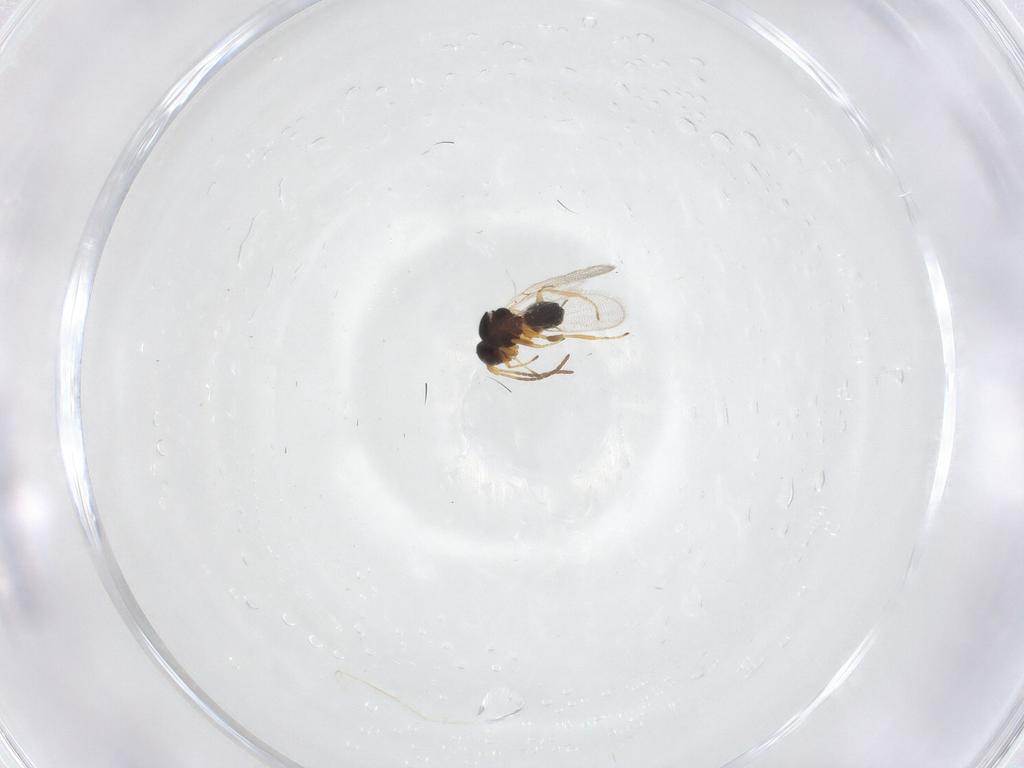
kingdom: Animalia
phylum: Arthropoda
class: Insecta
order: Hymenoptera
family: Figitidae
